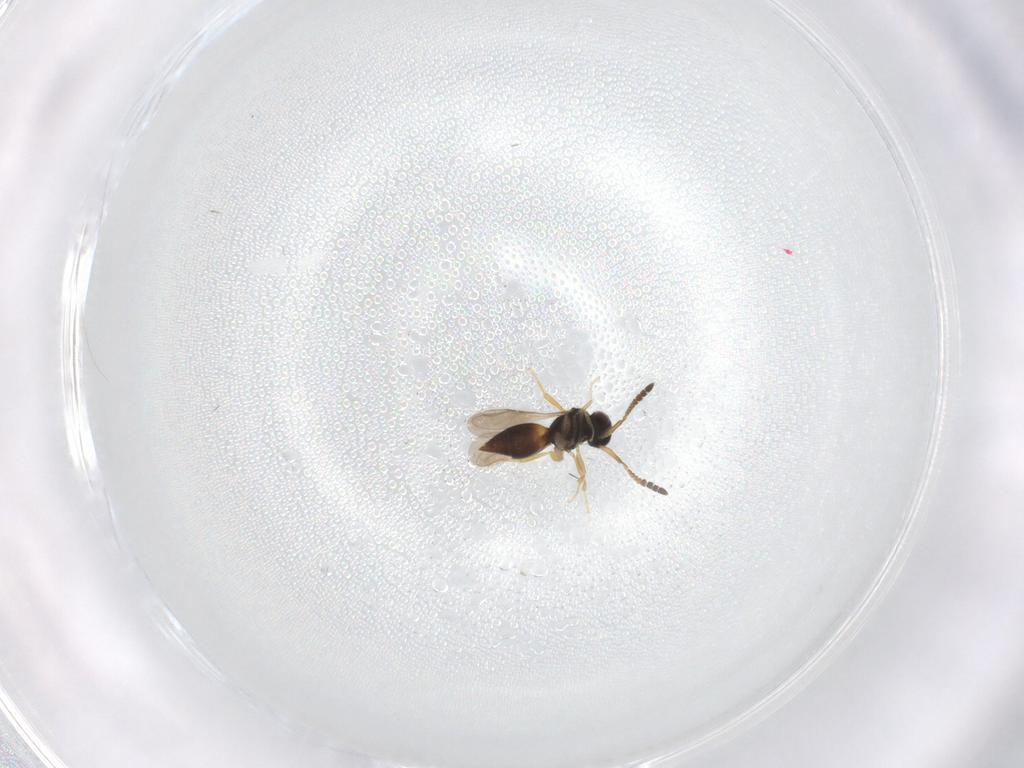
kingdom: Animalia
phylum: Arthropoda
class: Insecta
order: Hymenoptera
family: Ceraphronidae
